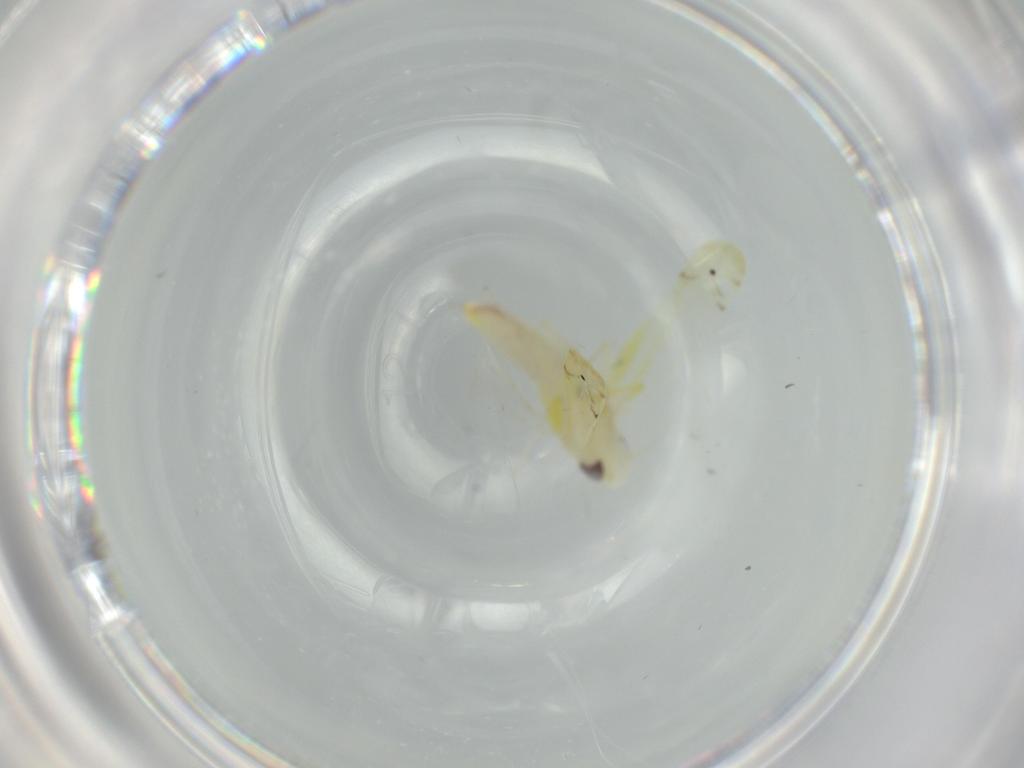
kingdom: Animalia
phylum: Arthropoda
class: Insecta
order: Hemiptera
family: Cicadellidae
